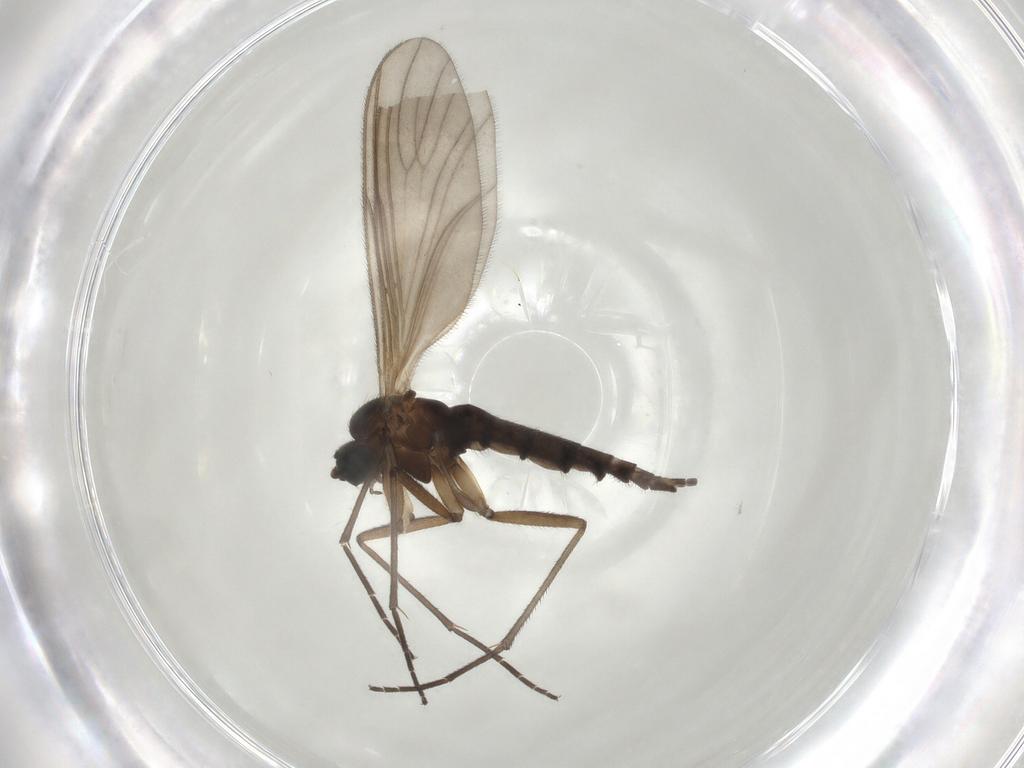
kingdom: Animalia
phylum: Arthropoda
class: Insecta
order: Diptera
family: Sciaridae
